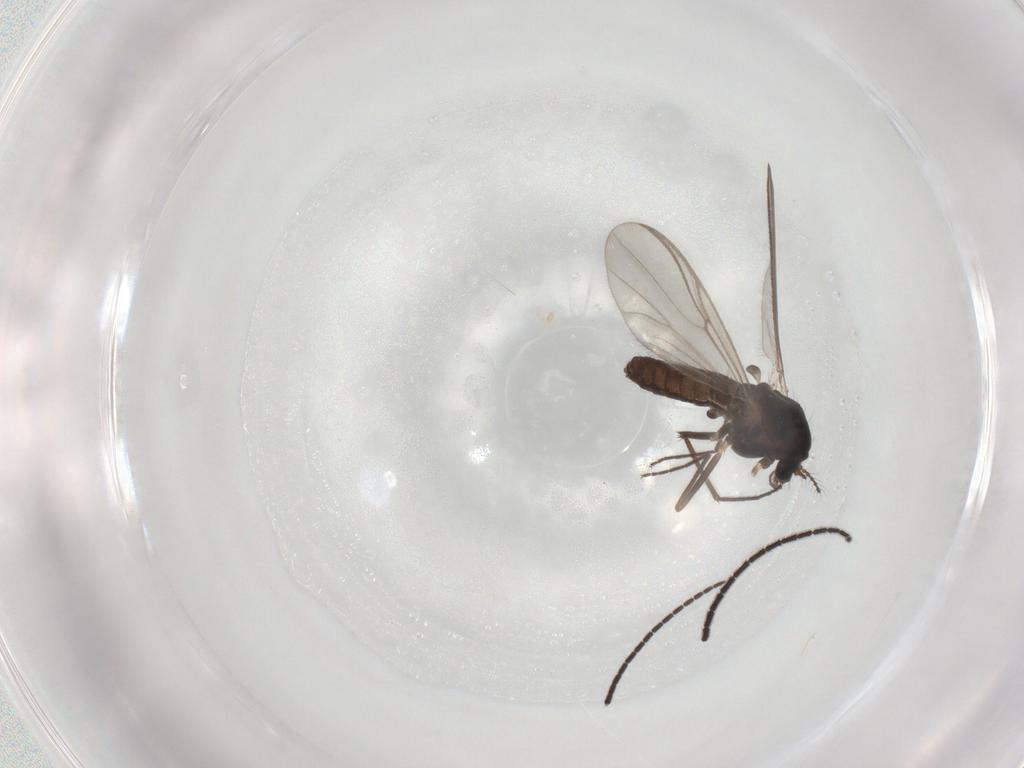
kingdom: Animalia
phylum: Arthropoda
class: Insecta
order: Diptera
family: Chironomidae
